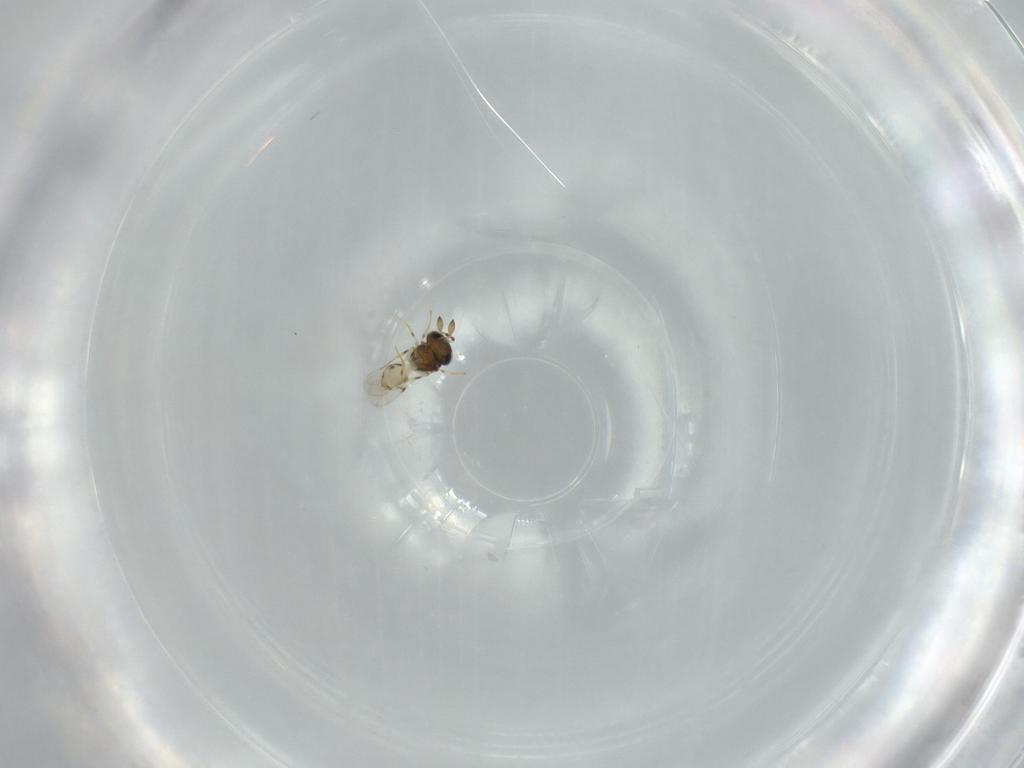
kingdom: Animalia
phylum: Arthropoda
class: Insecta
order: Hymenoptera
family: Scelionidae
